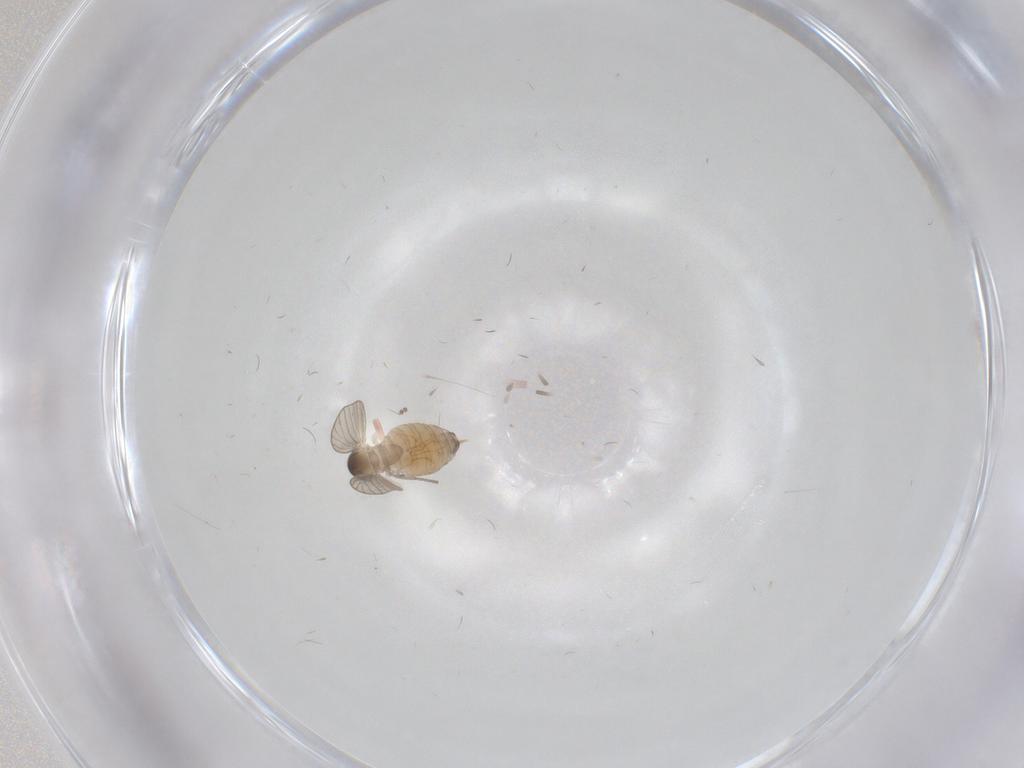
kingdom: Animalia
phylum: Arthropoda
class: Insecta
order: Diptera
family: Psychodidae
